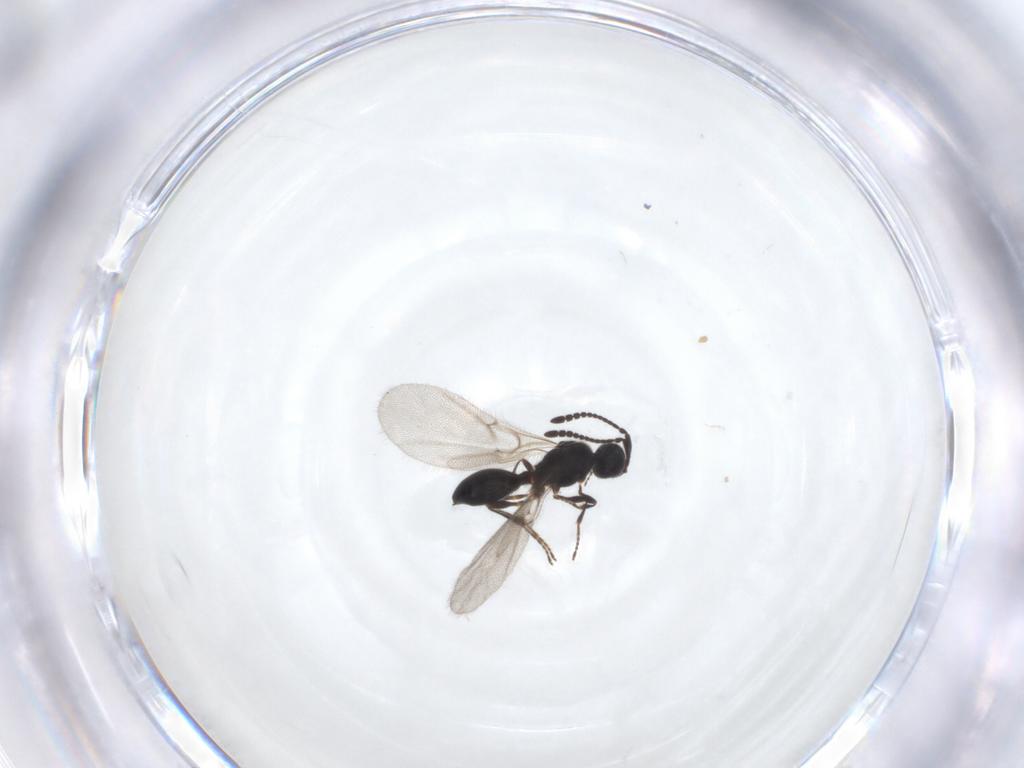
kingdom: Animalia
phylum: Arthropoda
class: Insecta
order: Hymenoptera
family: Diapriidae
